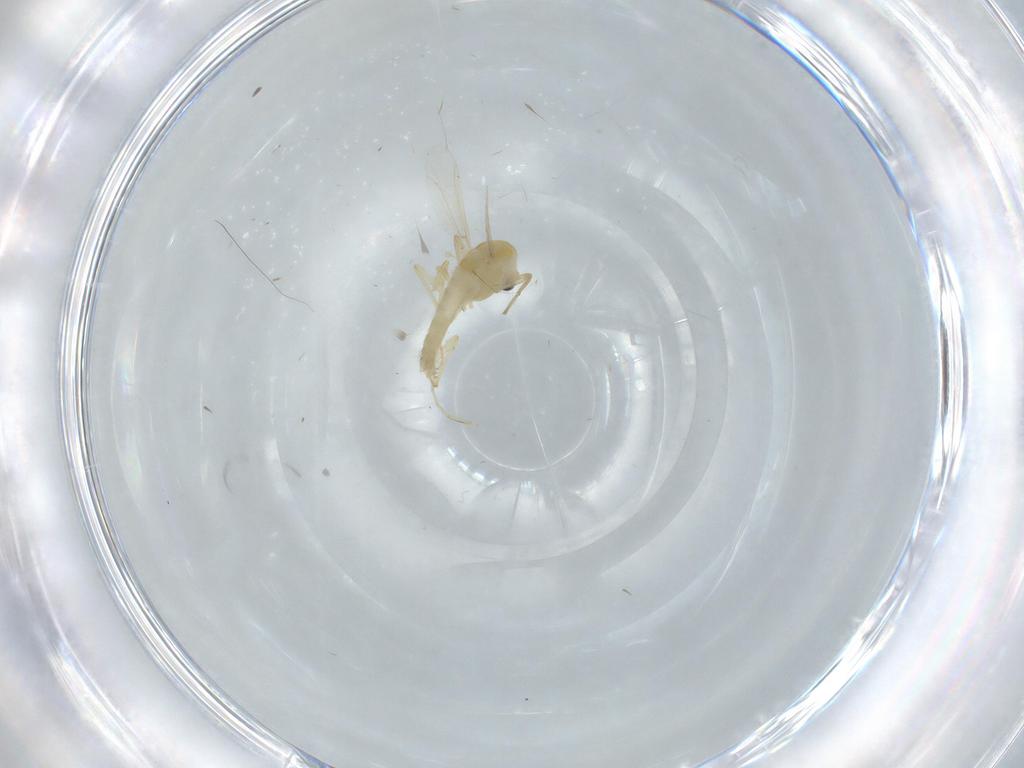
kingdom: Animalia
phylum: Arthropoda
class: Insecta
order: Diptera
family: Chironomidae
